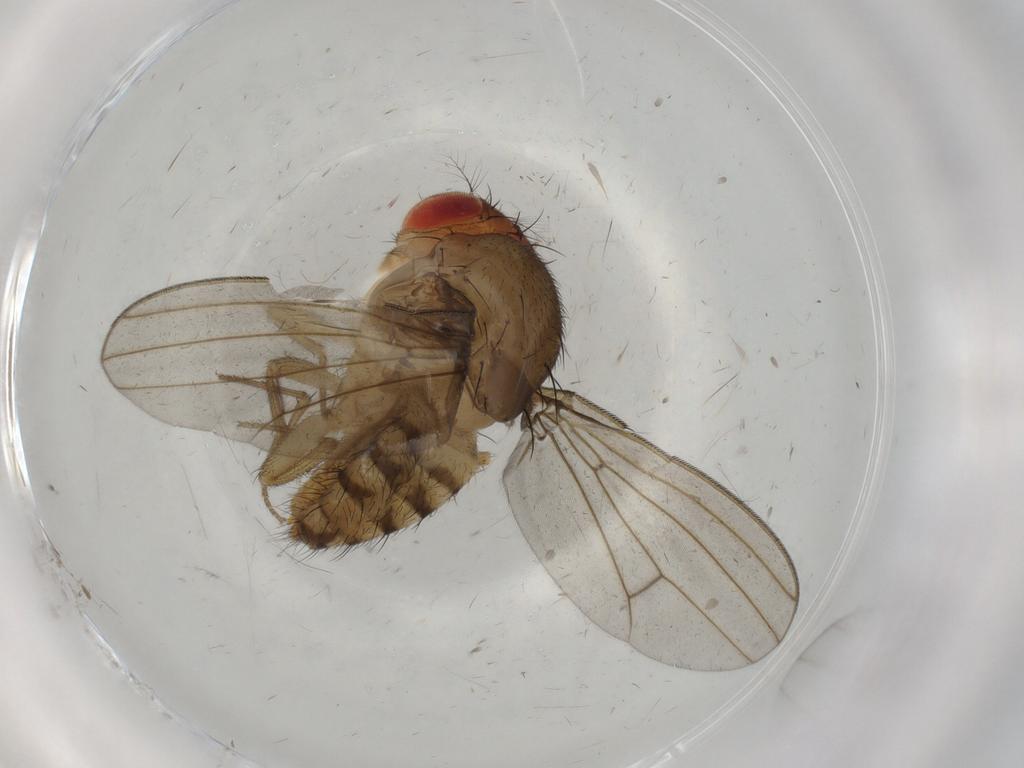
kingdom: Animalia
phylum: Arthropoda
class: Insecta
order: Diptera
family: Drosophilidae
